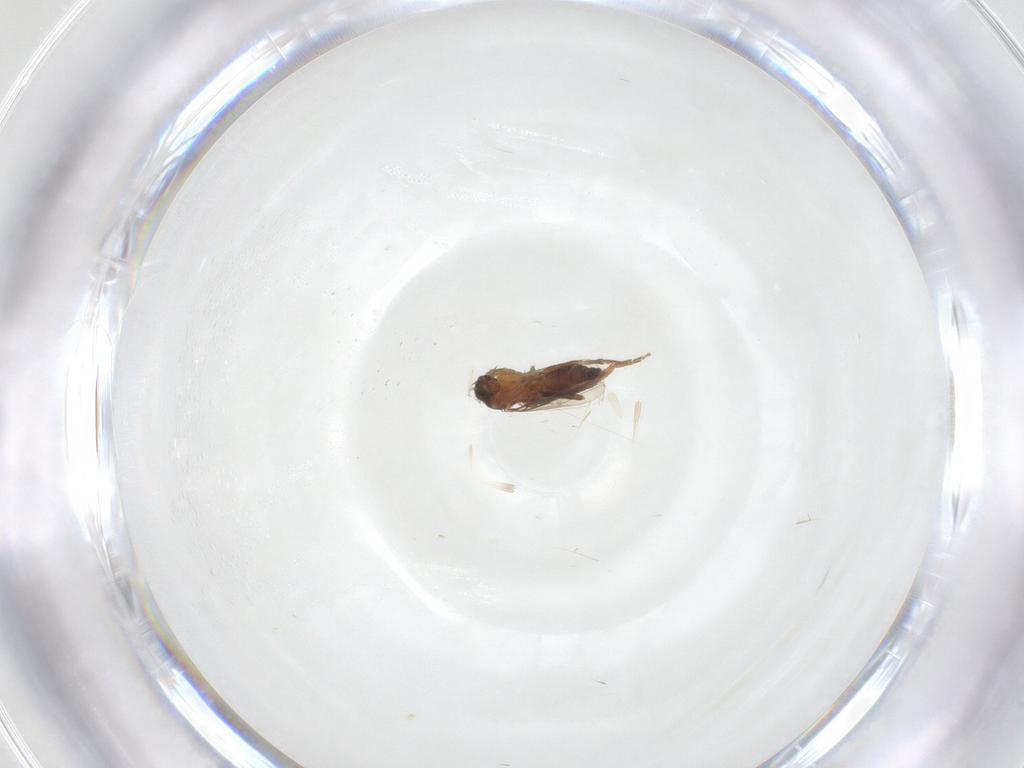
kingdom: Animalia
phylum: Arthropoda
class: Insecta
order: Diptera
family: Phoridae
